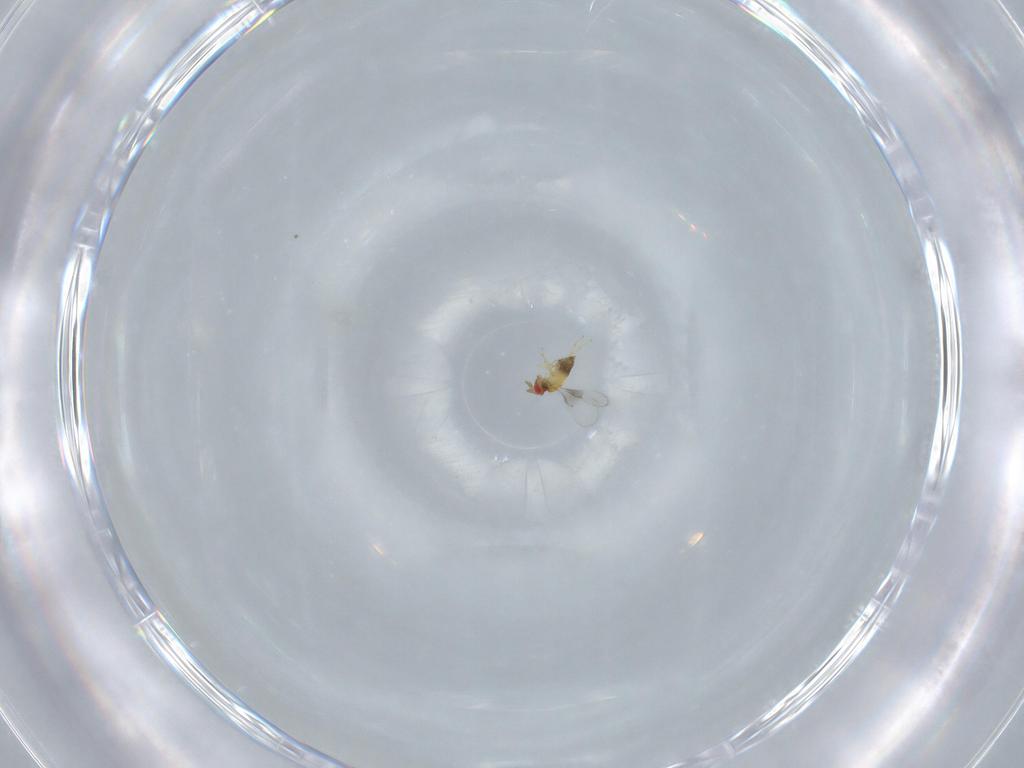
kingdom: Animalia
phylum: Arthropoda
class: Insecta
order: Hymenoptera
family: Trichogrammatidae
